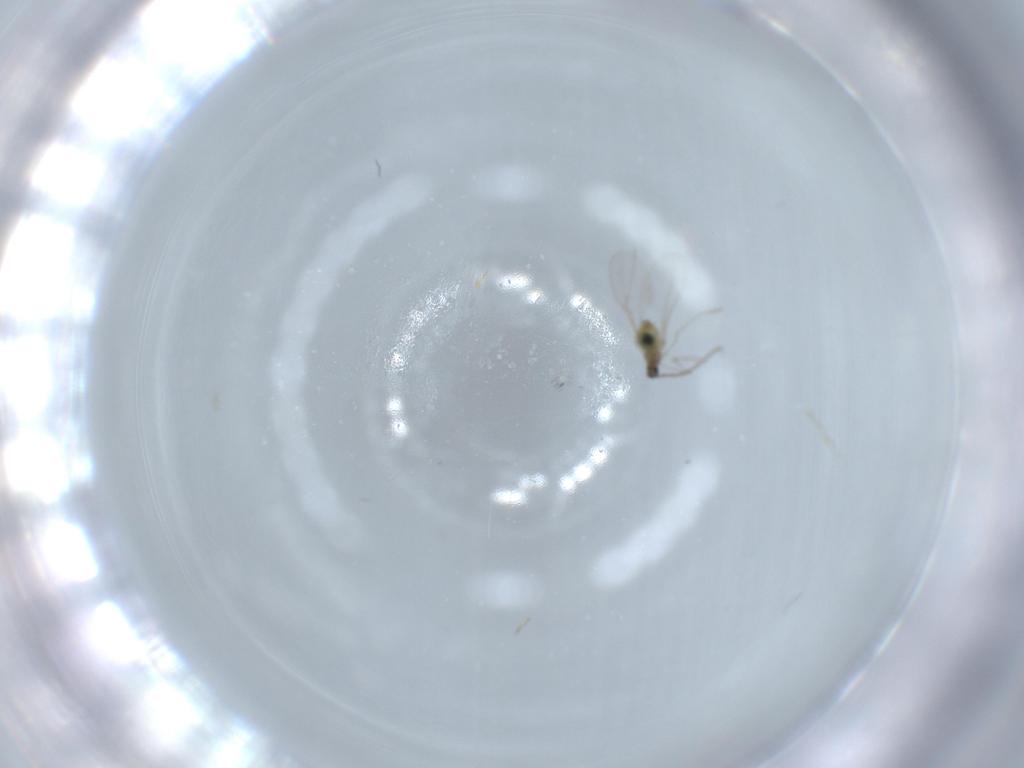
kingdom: Animalia
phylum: Arthropoda
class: Insecta
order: Diptera
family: Cecidomyiidae
